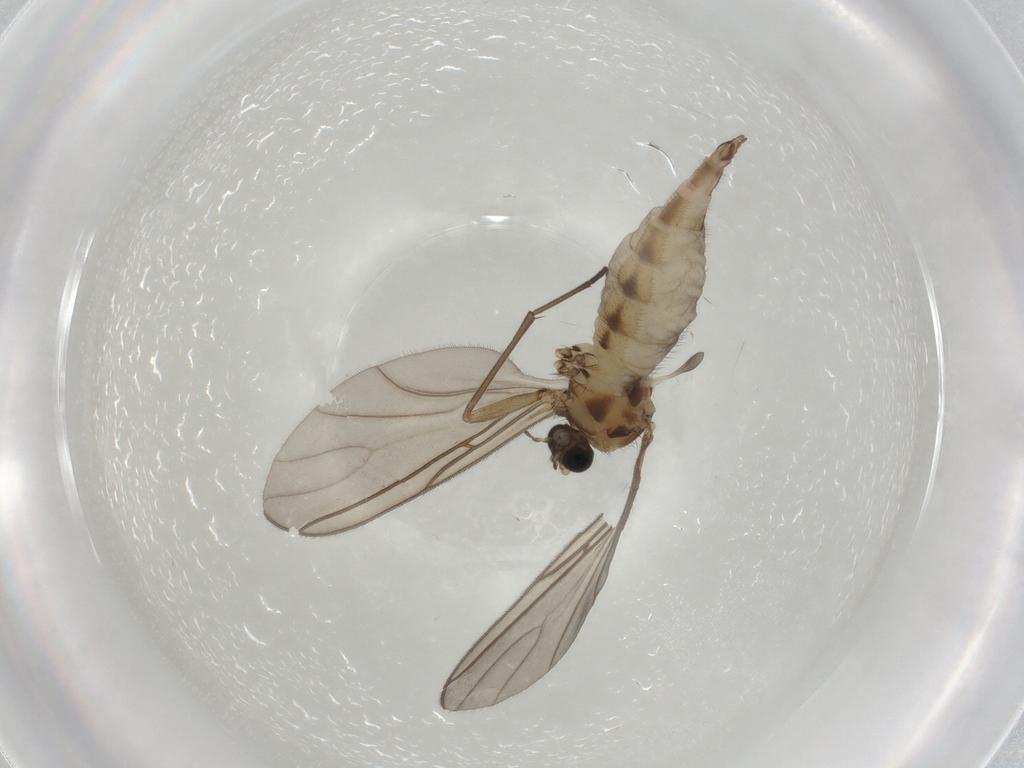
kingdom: Animalia
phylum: Arthropoda
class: Insecta
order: Diptera
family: Sciaridae
